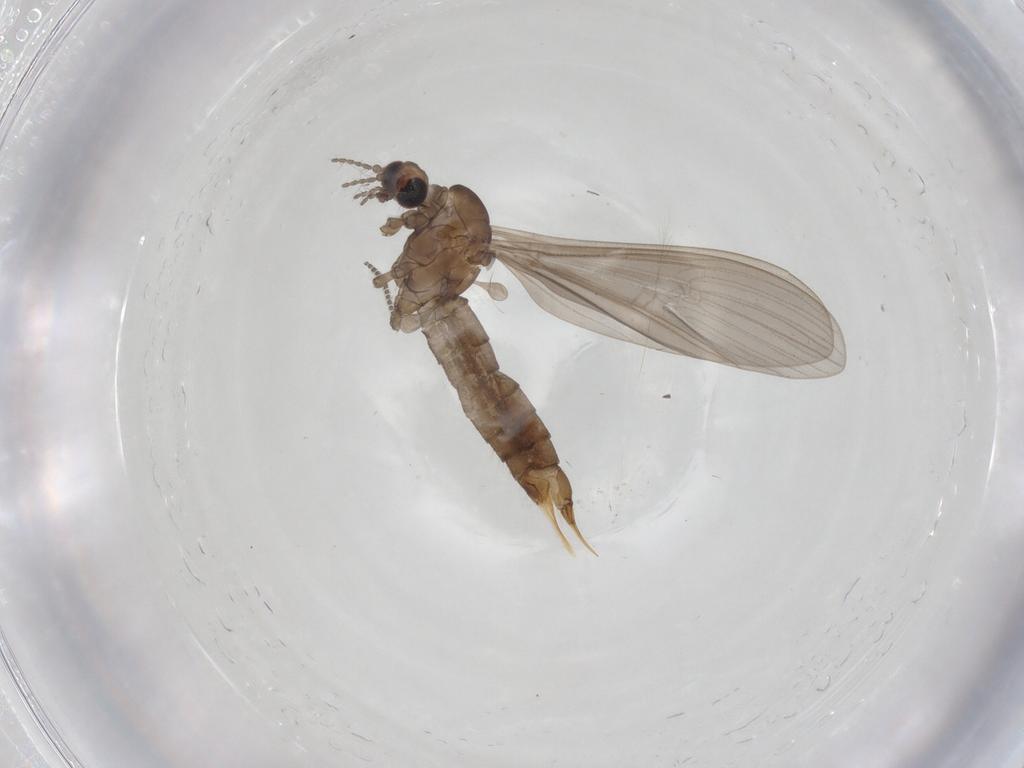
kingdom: Animalia
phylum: Arthropoda
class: Insecta
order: Diptera
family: Limoniidae
